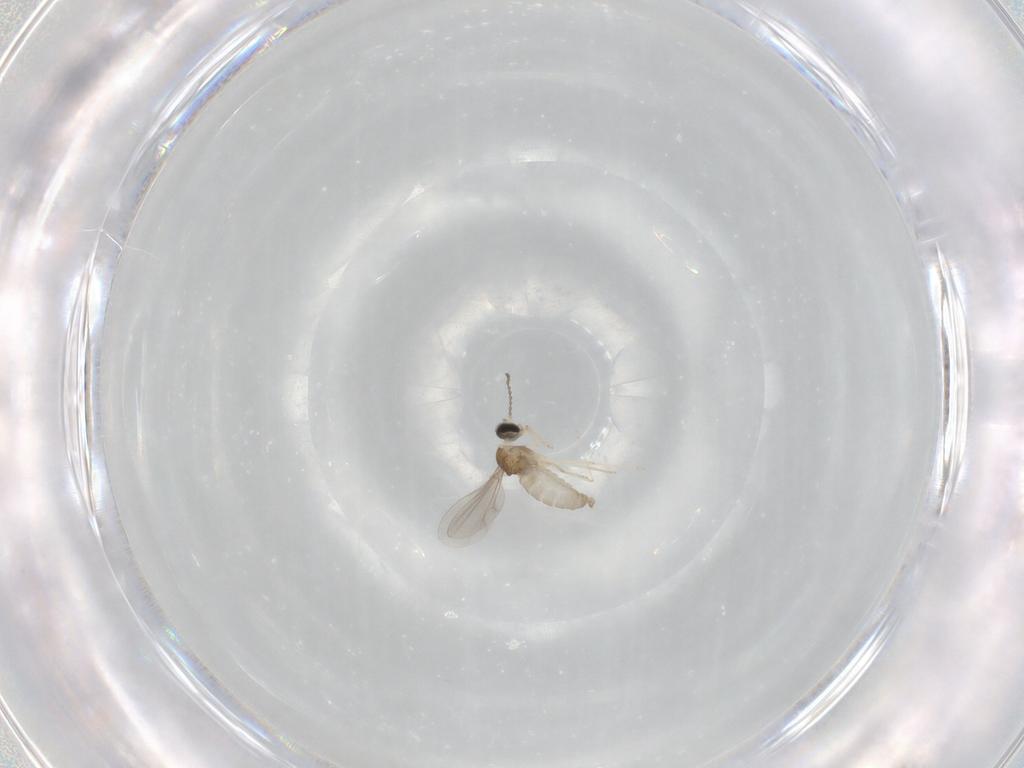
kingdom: Animalia
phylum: Arthropoda
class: Insecta
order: Diptera
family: Cecidomyiidae
